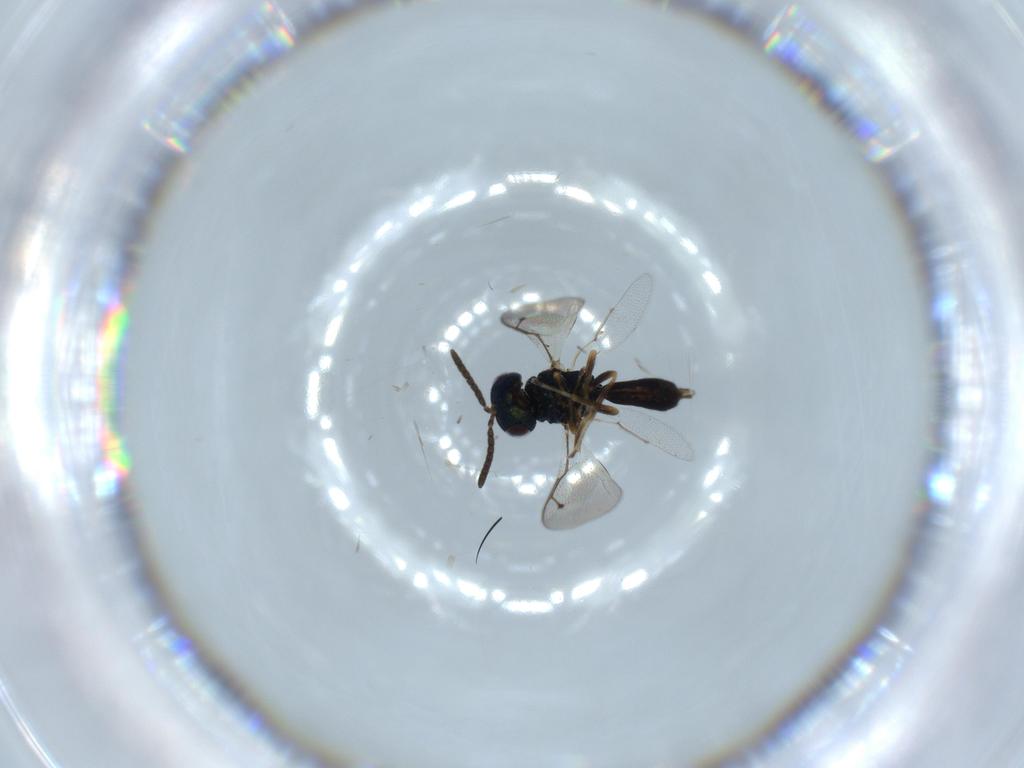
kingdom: Animalia
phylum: Arthropoda
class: Insecta
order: Hymenoptera
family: Pteromalidae
